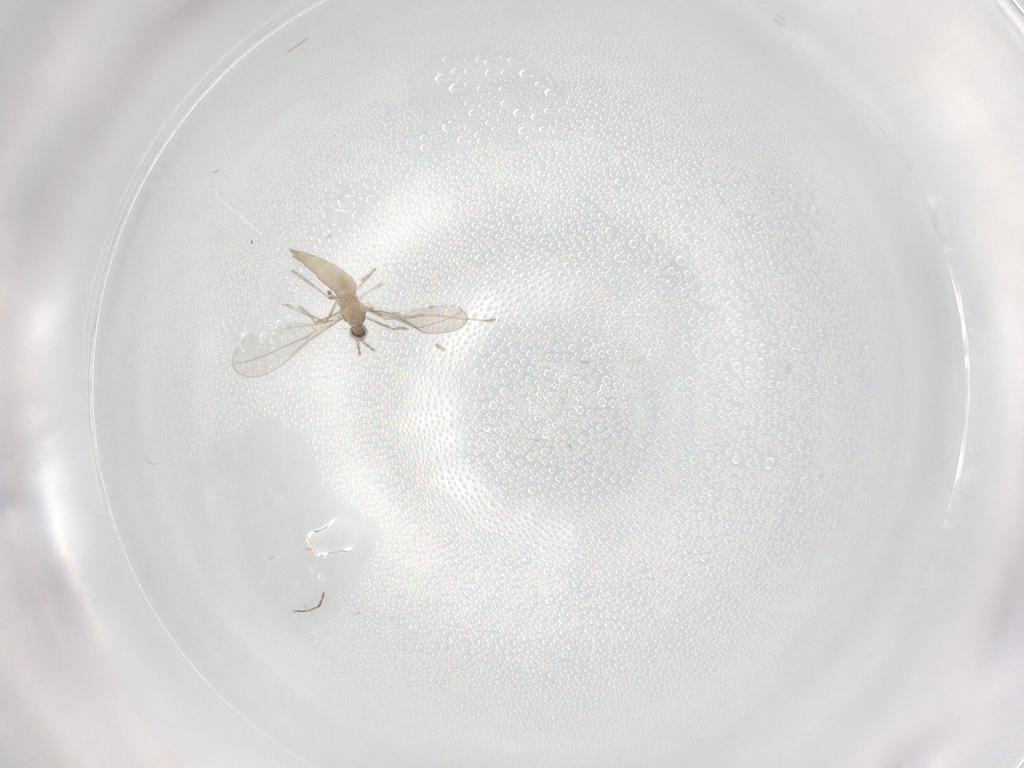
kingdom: Animalia
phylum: Arthropoda
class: Insecta
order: Diptera
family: Cecidomyiidae
